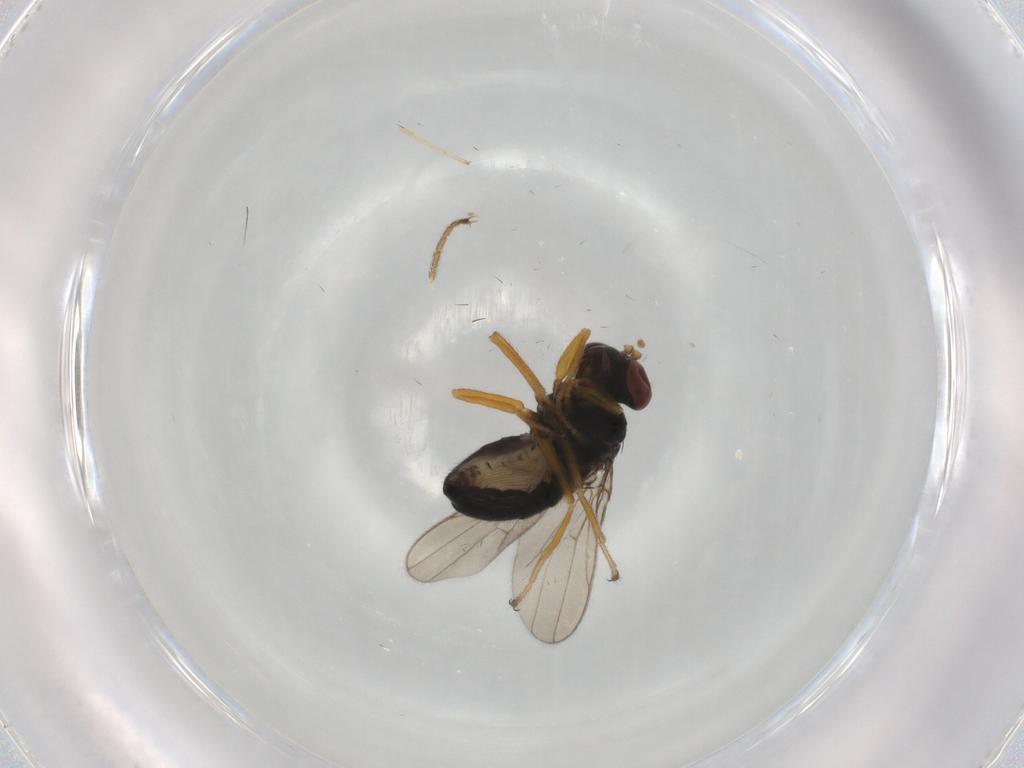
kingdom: Animalia
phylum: Arthropoda
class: Insecta
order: Diptera
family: Ephydridae
